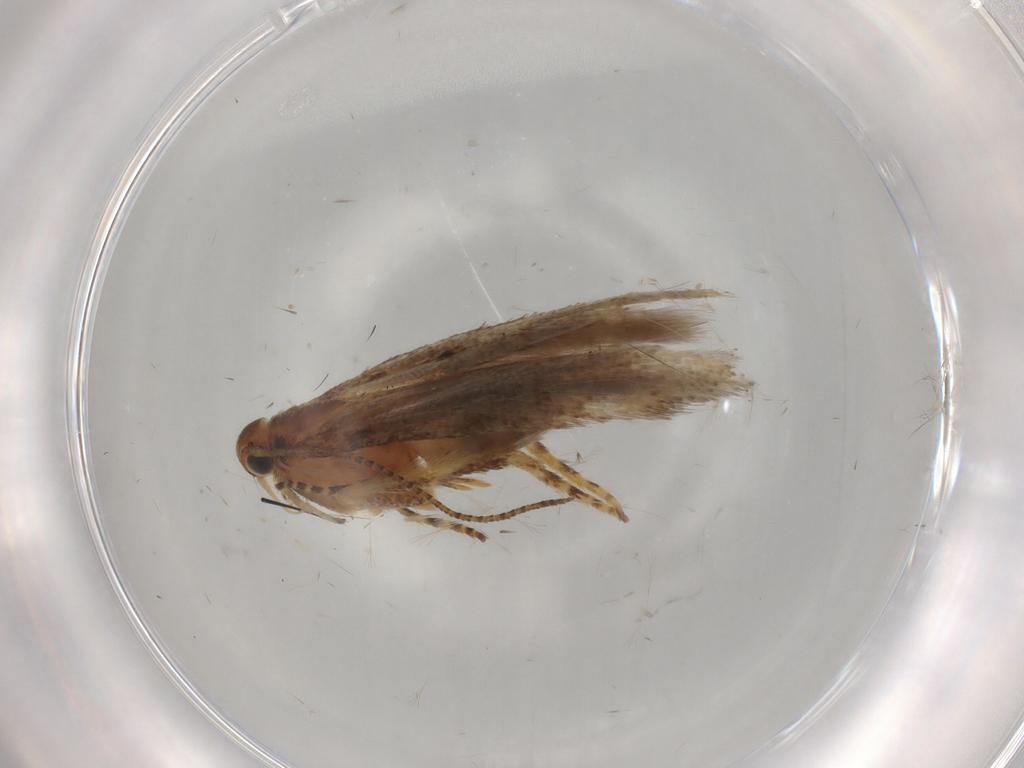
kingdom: Animalia
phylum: Arthropoda
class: Insecta
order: Lepidoptera
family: Gelechiidae
